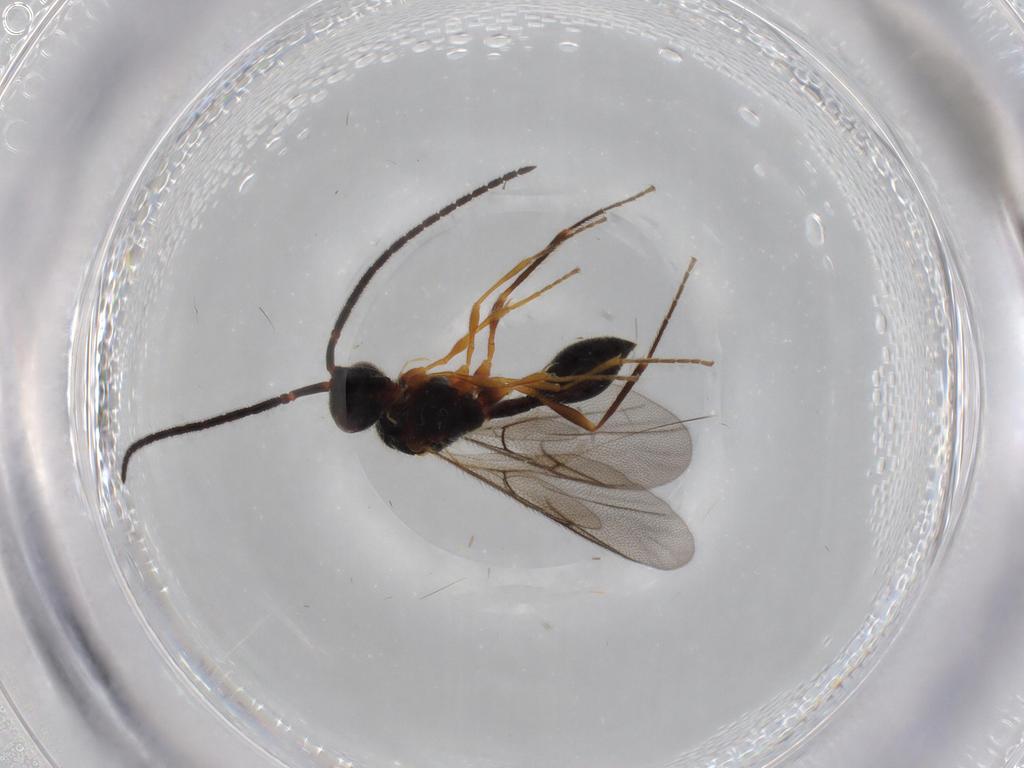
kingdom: Animalia
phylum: Arthropoda
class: Insecta
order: Hymenoptera
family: Diapriidae
